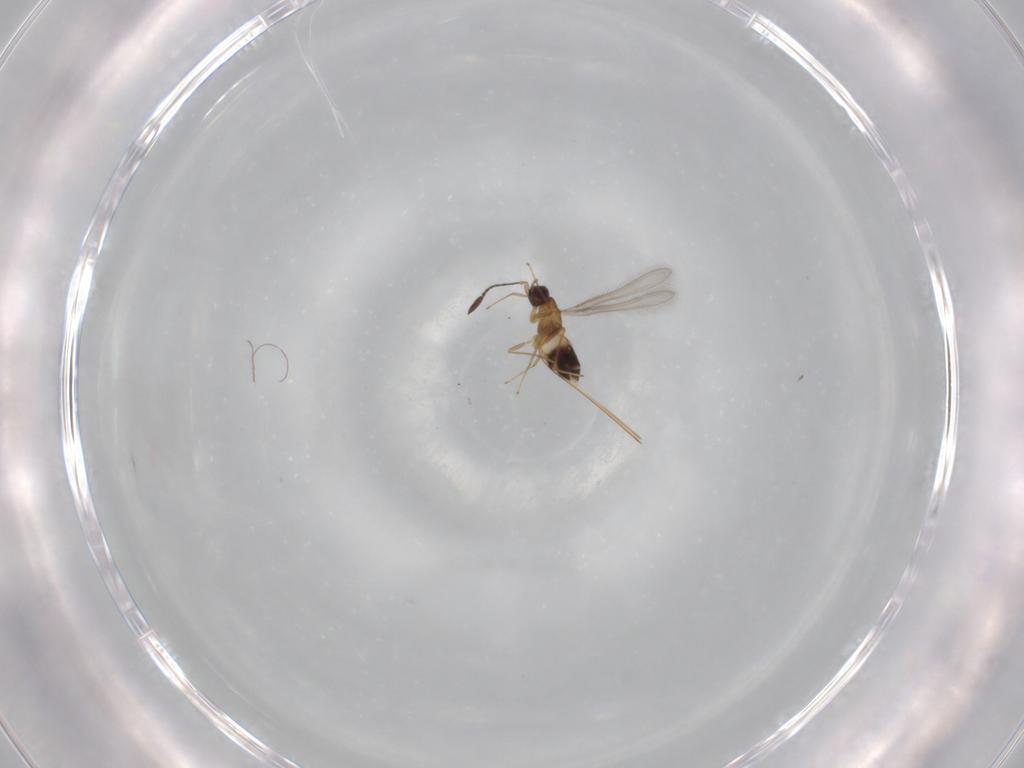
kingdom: Animalia
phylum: Arthropoda
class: Insecta
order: Hymenoptera
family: Mymaridae
